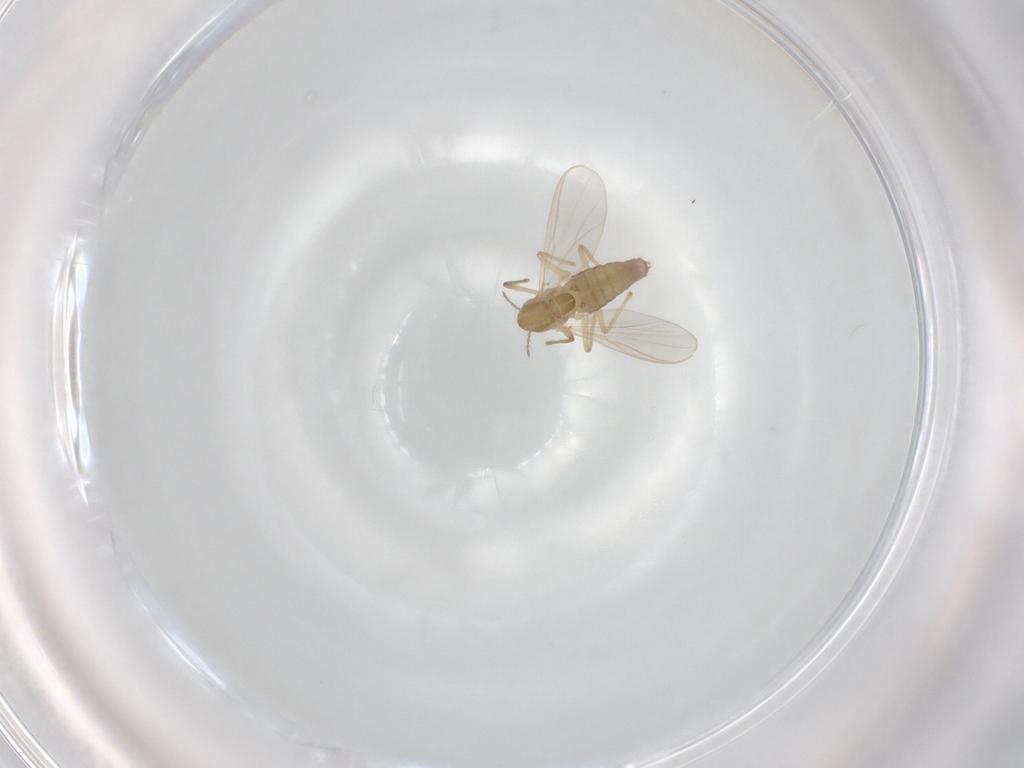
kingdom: Animalia
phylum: Arthropoda
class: Insecta
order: Diptera
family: Chironomidae
